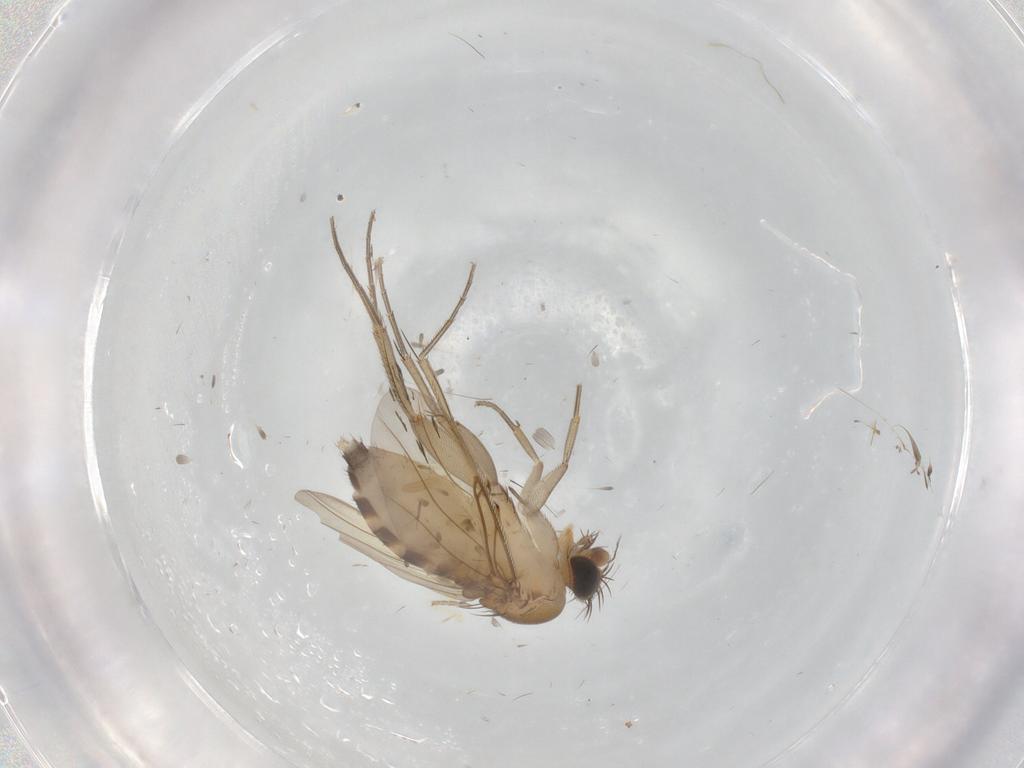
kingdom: Animalia
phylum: Arthropoda
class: Insecta
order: Diptera
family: Phoridae
